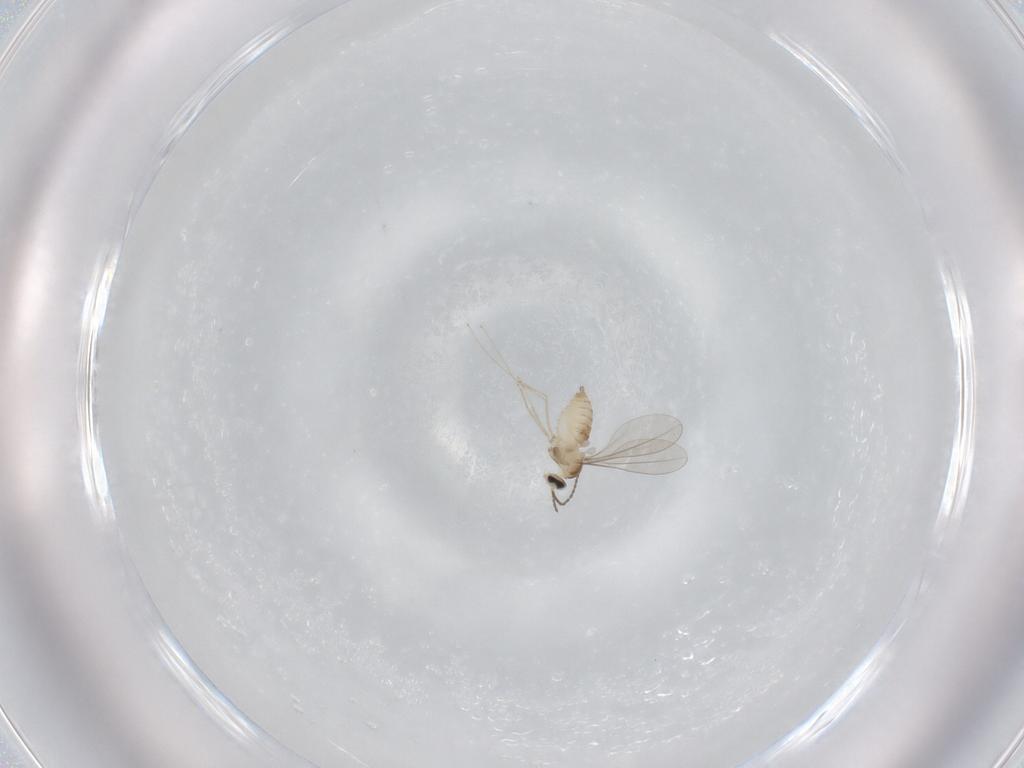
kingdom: Animalia
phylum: Arthropoda
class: Insecta
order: Diptera
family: Cecidomyiidae
